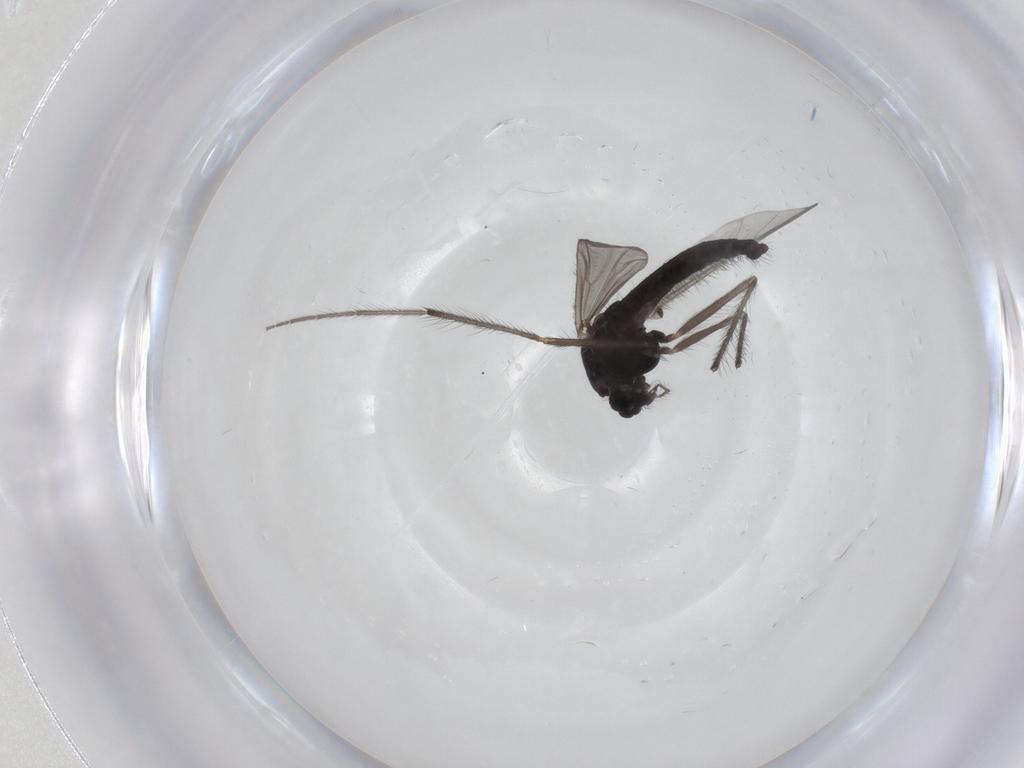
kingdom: Animalia
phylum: Arthropoda
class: Insecta
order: Diptera
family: Chironomidae
